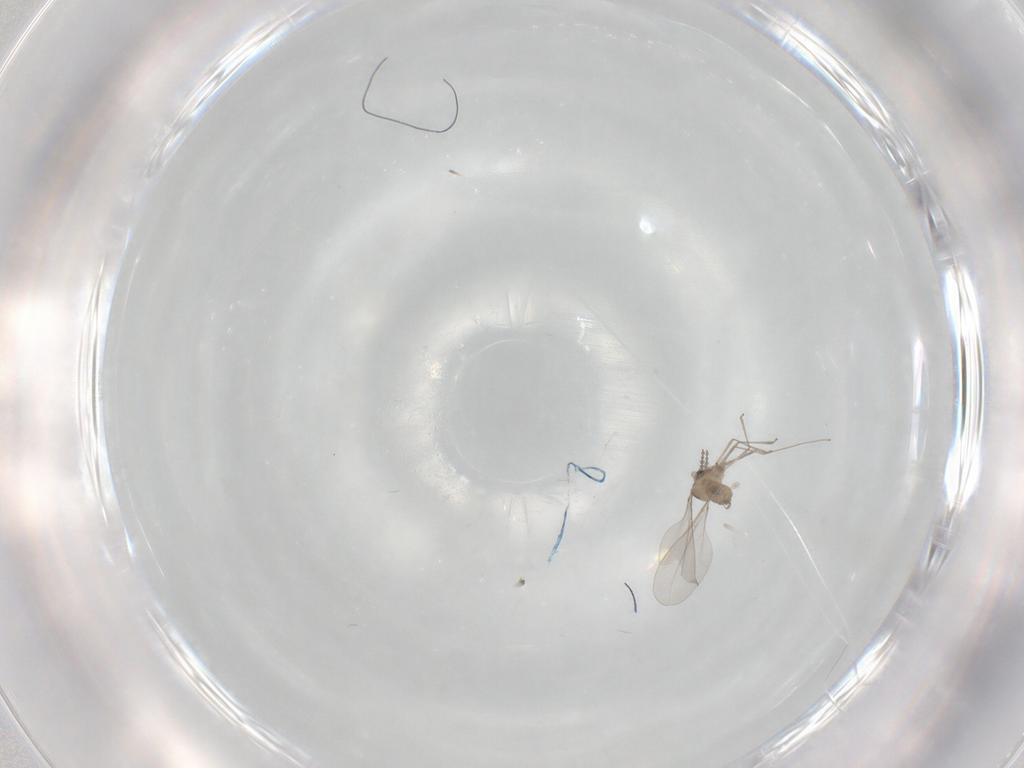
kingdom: Animalia
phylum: Arthropoda
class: Insecta
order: Diptera
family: Cecidomyiidae
